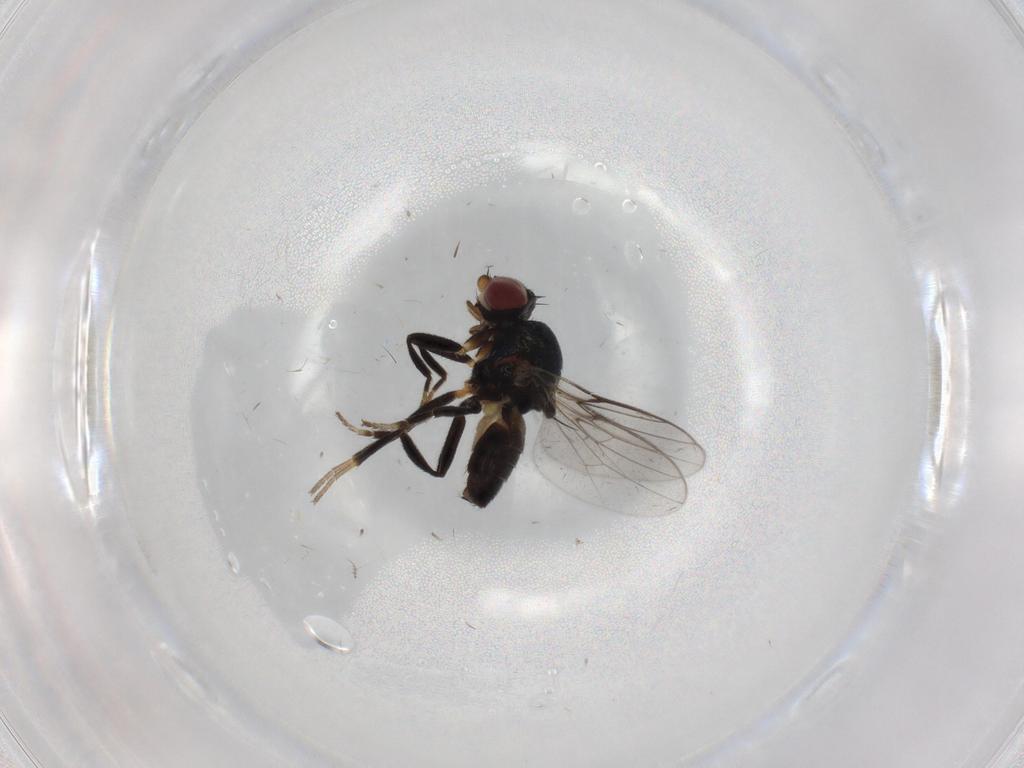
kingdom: Animalia
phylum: Arthropoda
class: Insecta
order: Diptera
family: Chloropidae
